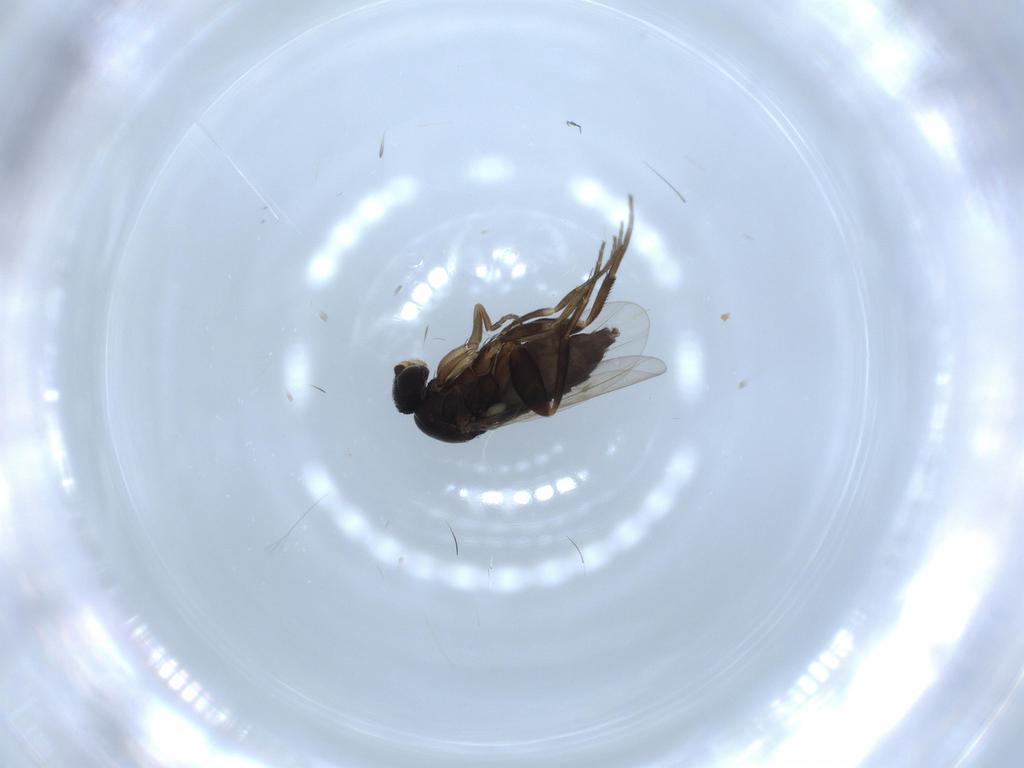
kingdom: Animalia
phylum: Arthropoda
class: Insecta
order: Diptera
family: Phoridae
